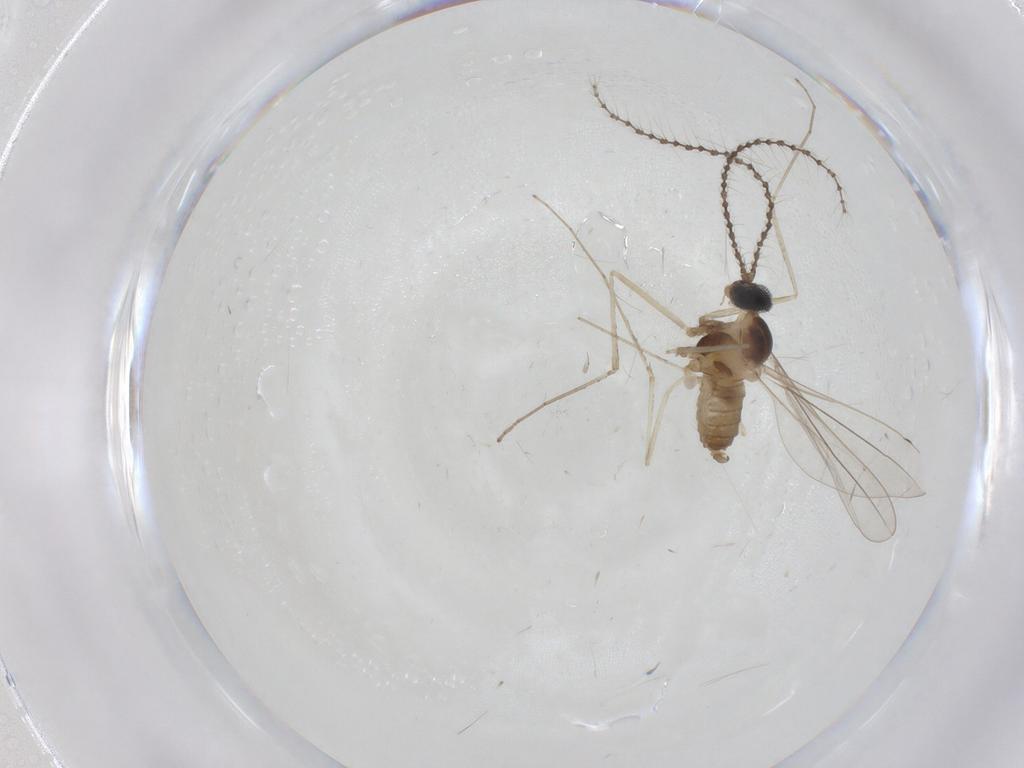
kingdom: Animalia
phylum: Arthropoda
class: Insecta
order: Diptera
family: Cecidomyiidae
